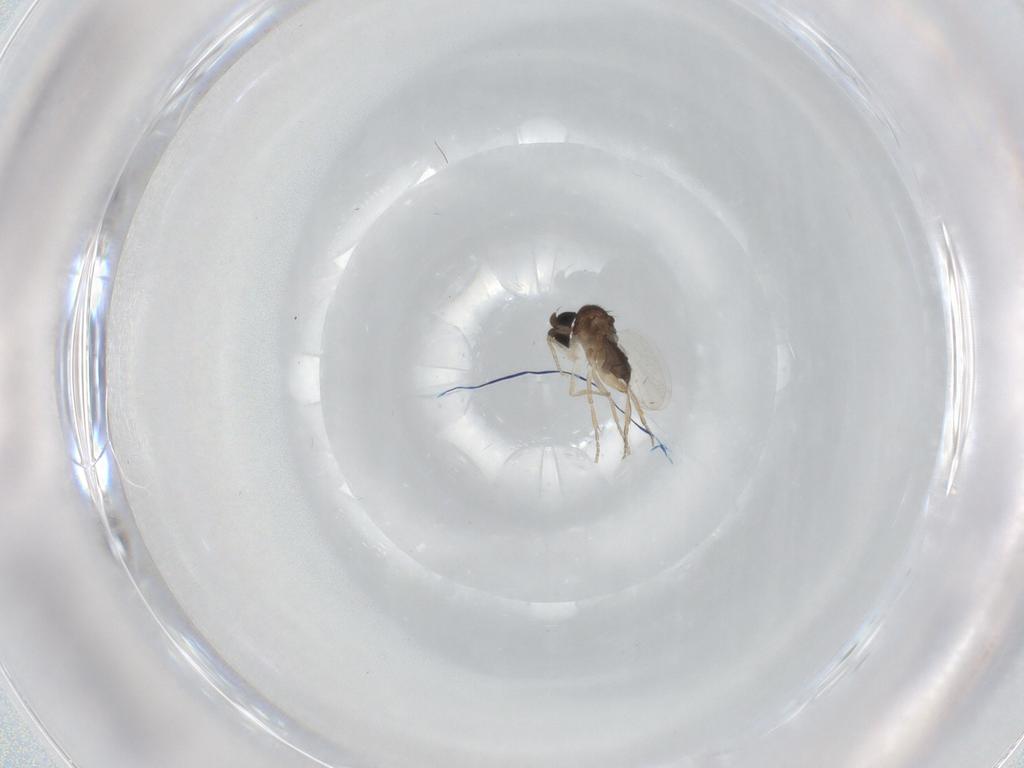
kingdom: Animalia
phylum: Arthropoda
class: Insecta
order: Diptera
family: Phoridae
